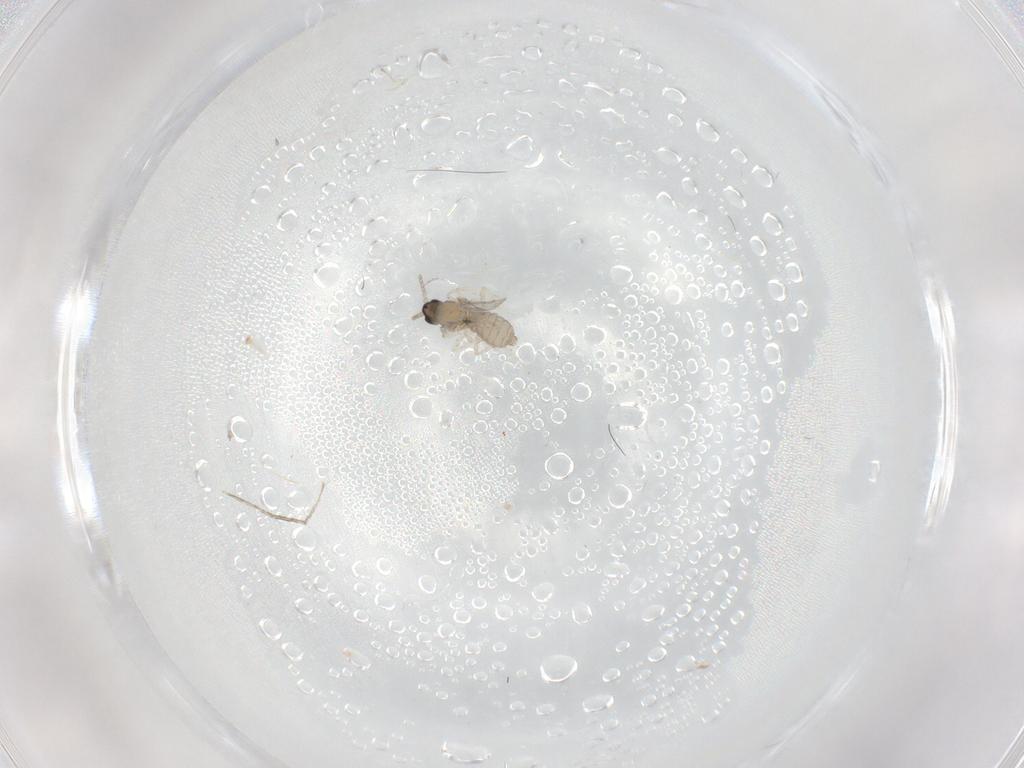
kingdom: Animalia
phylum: Arthropoda
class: Insecta
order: Diptera
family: Cecidomyiidae
